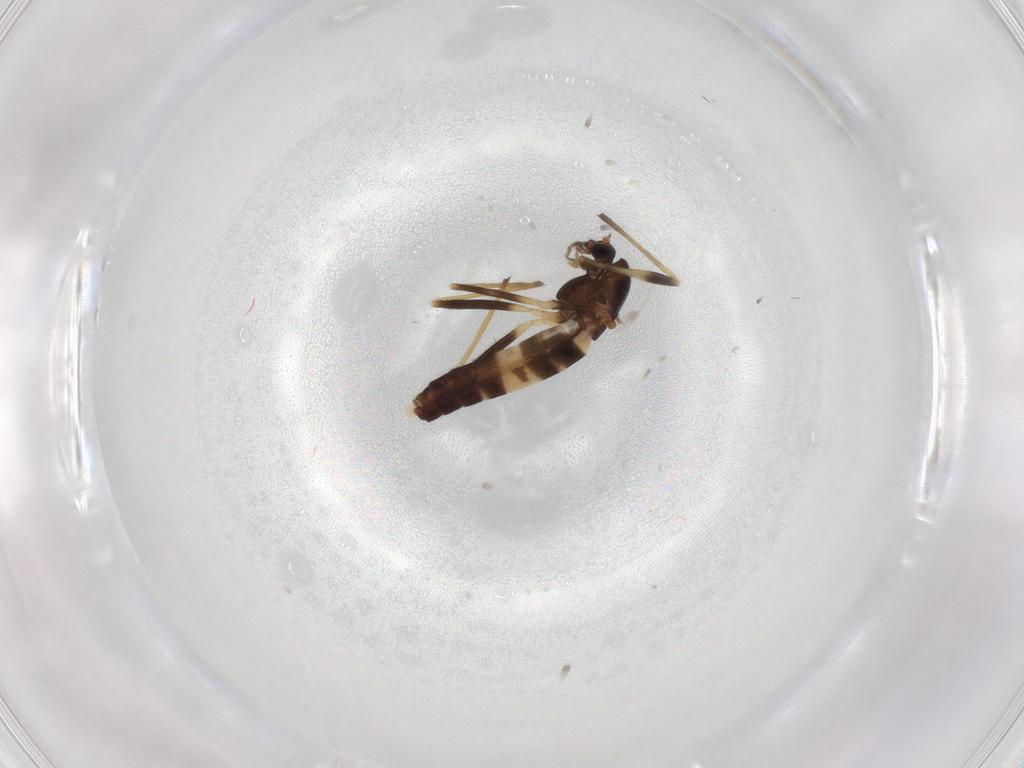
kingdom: Animalia
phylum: Arthropoda
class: Insecta
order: Diptera
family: Chironomidae
